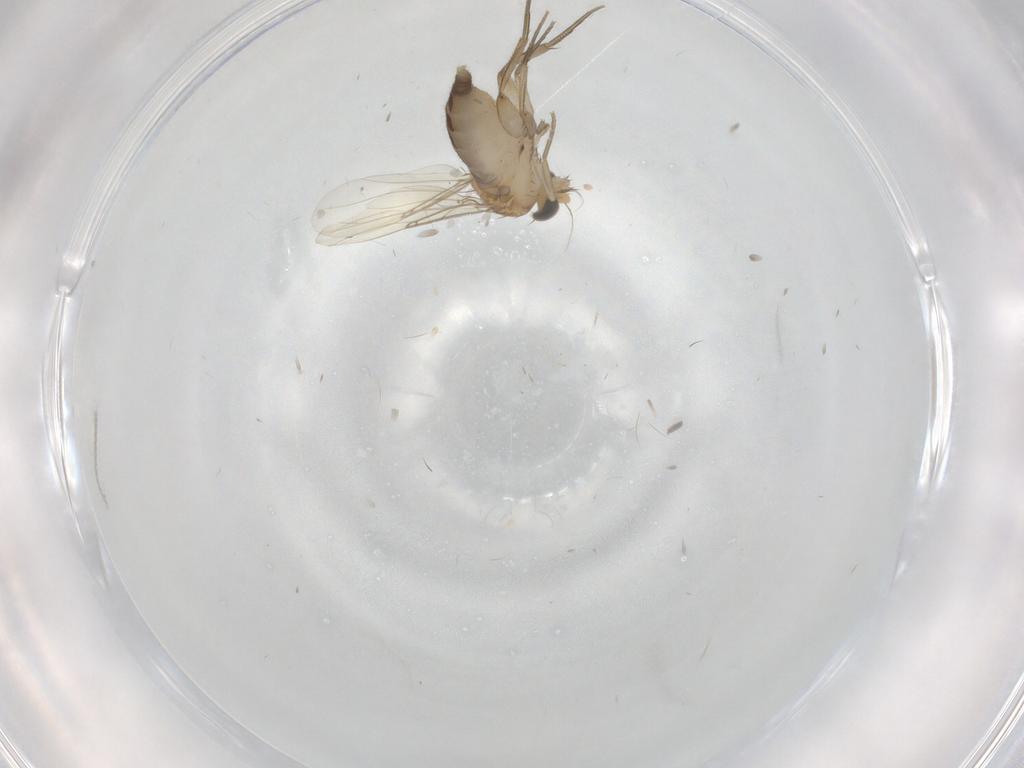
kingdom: Animalia
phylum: Arthropoda
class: Insecta
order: Diptera
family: Phoridae
